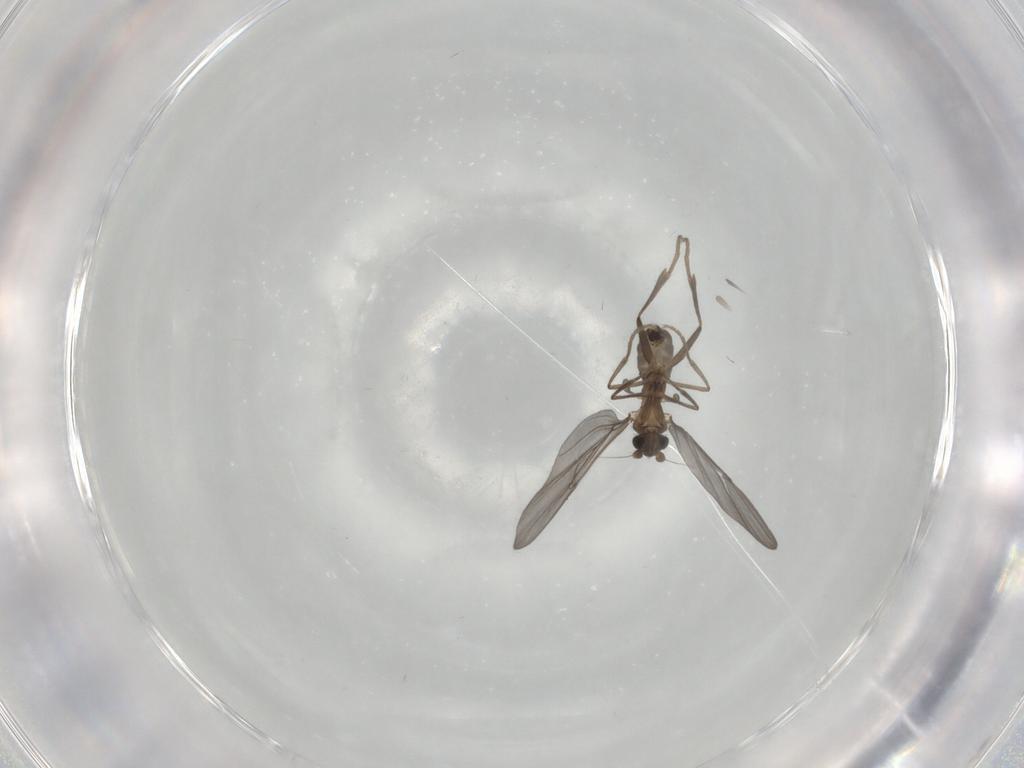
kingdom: Animalia
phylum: Arthropoda
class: Insecta
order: Diptera
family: Phoridae
